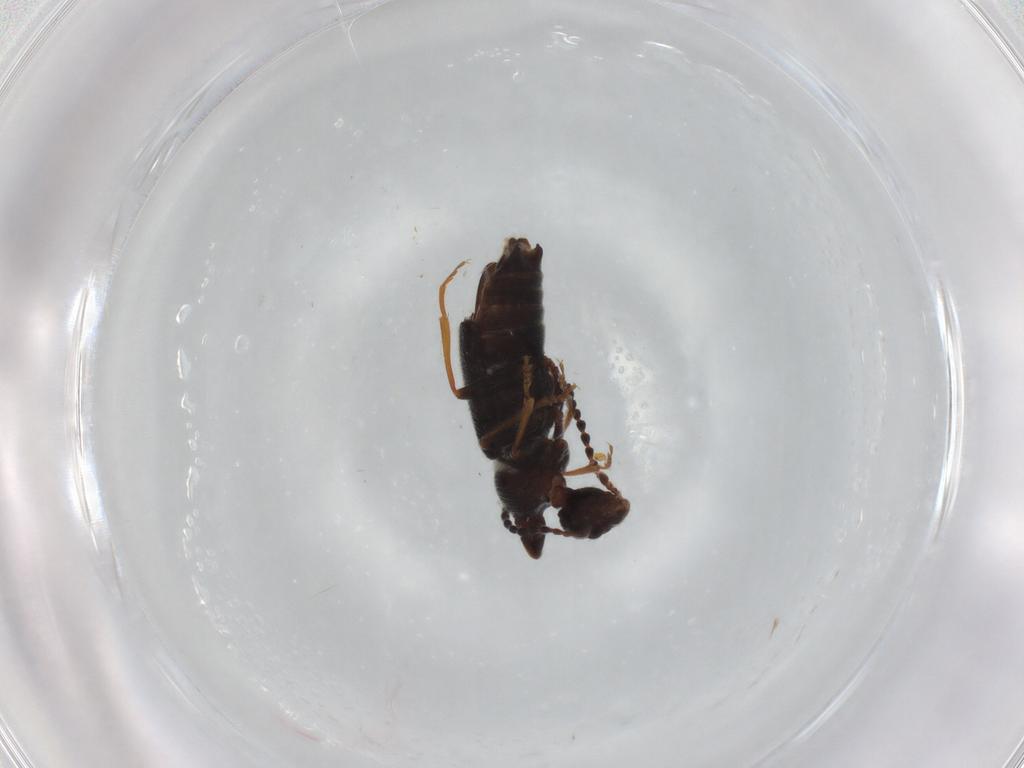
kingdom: Animalia
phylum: Arthropoda
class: Insecta
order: Coleoptera
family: Anthicidae
